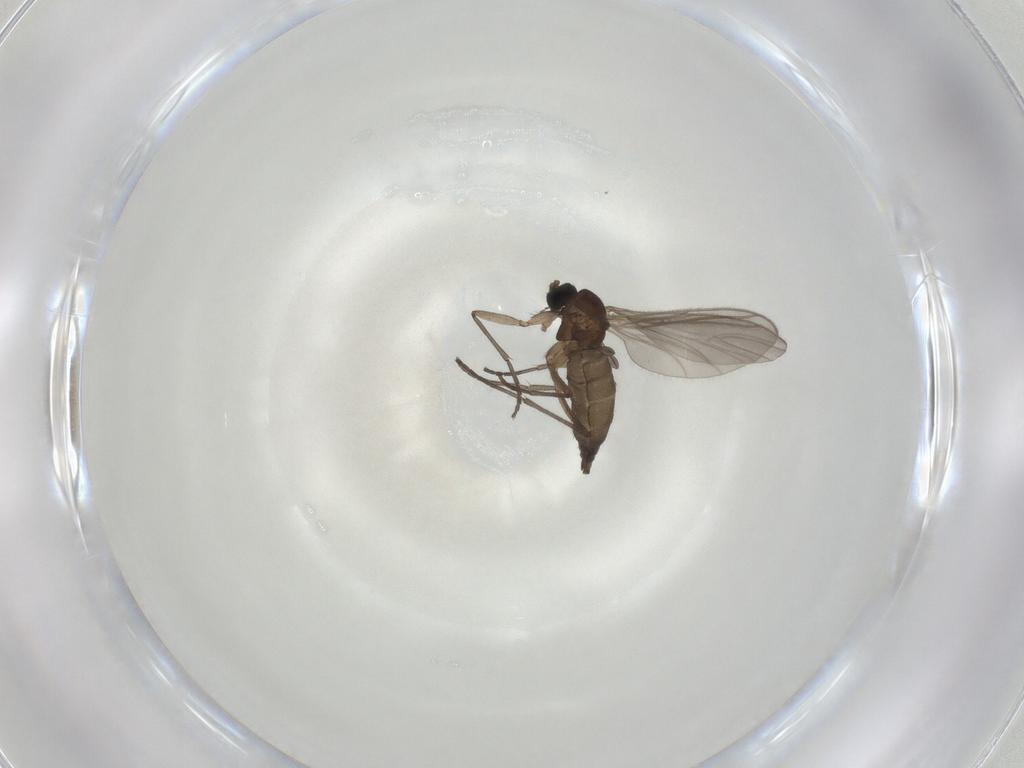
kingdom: Animalia
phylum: Arthropoda
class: Insecta
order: Diptera
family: Sciaridae
